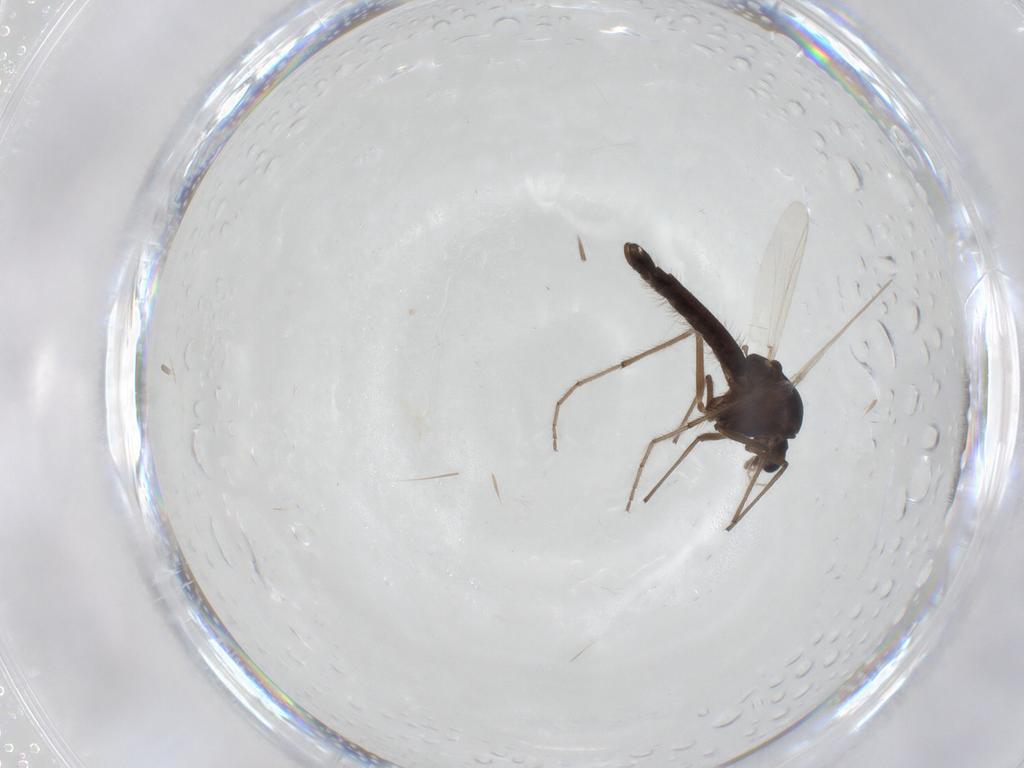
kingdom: Animalia
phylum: Arthropoda
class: Insecta
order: Diptera
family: Chironomidae
